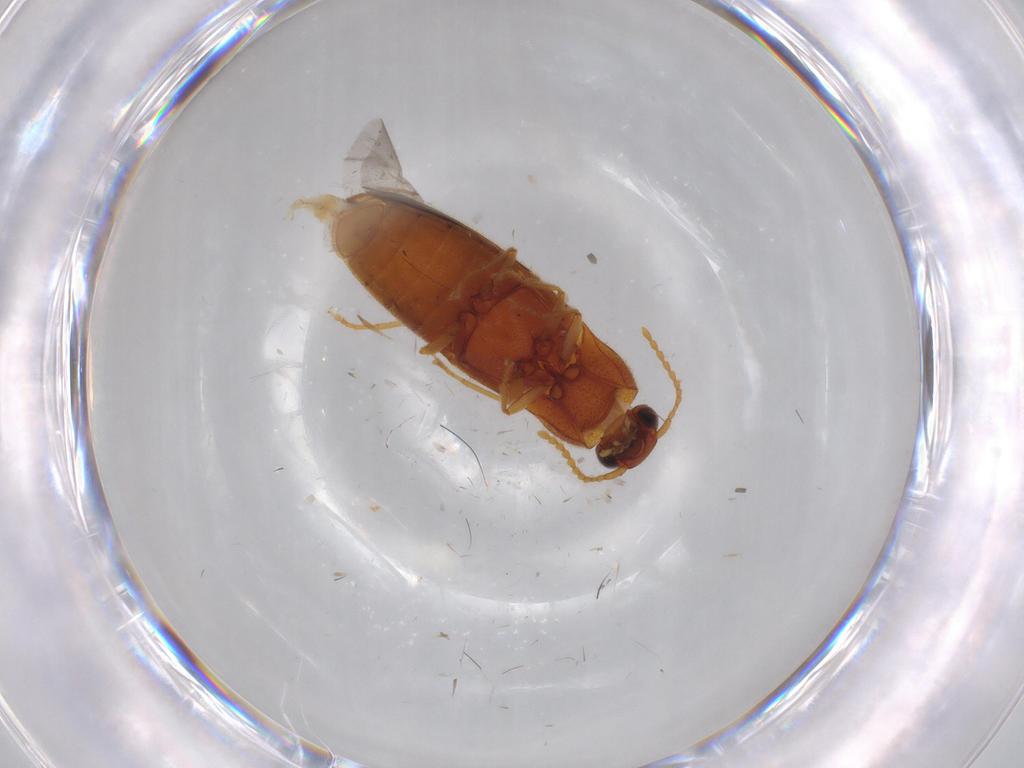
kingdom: Animalia
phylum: Arthropoda
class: Insecta
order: Coleoptera
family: Elateridae
